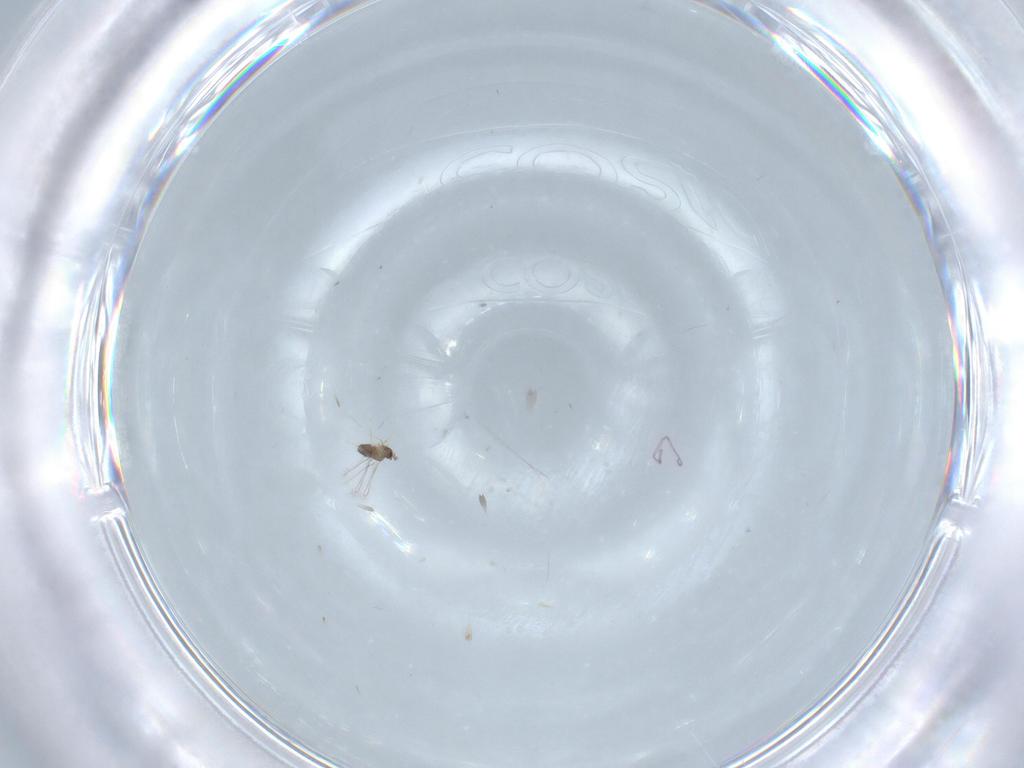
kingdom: Animalia
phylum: Arthropoda
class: Insecta
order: Hymenoptera
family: Mymaridae
